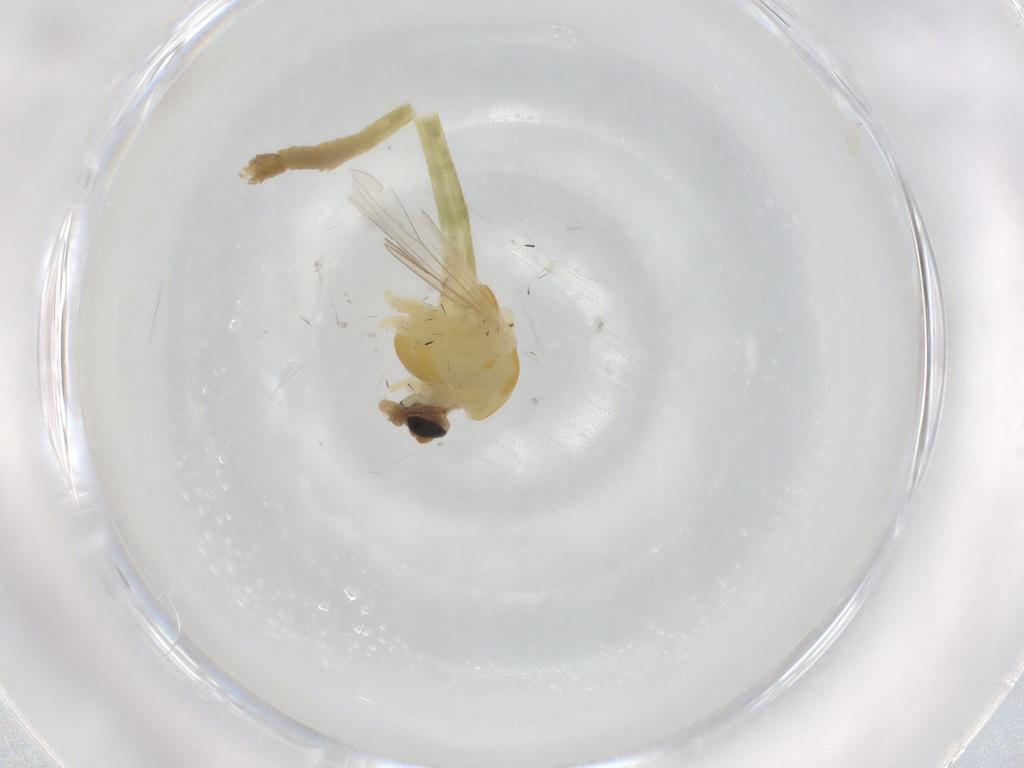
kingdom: Animalia
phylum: Arthropoda
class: Insecta
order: Diptera
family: Chironomidae
